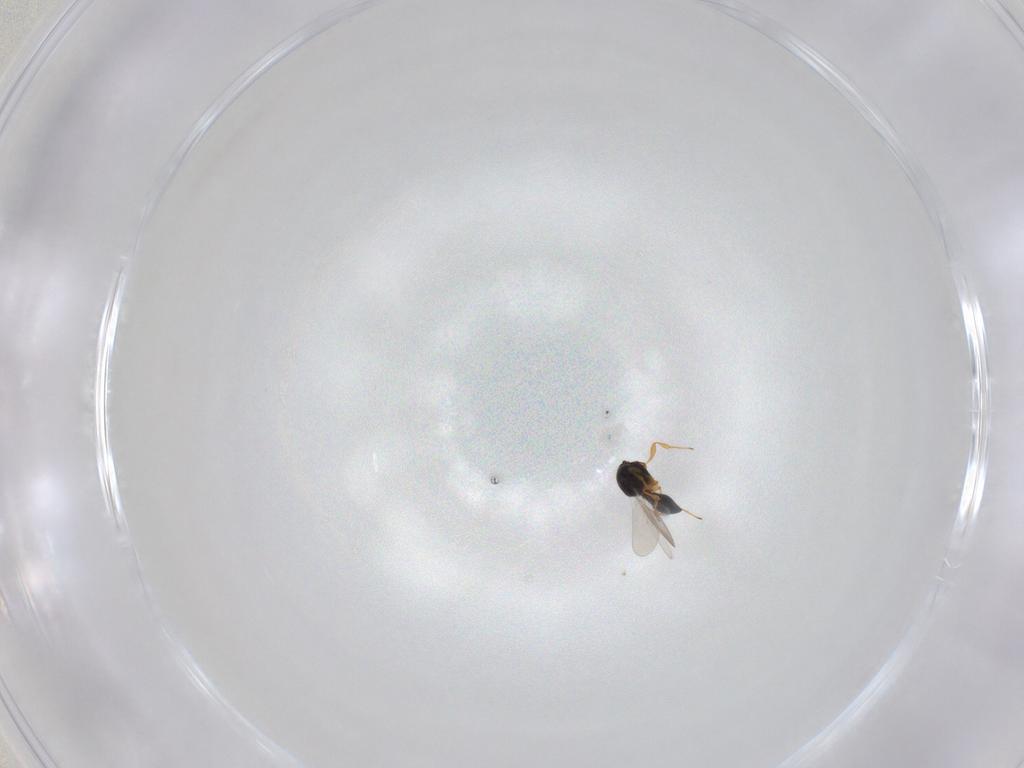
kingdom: Animalia
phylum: Arthropoda
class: Insecta
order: Hymenoptera
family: Platygastridae
